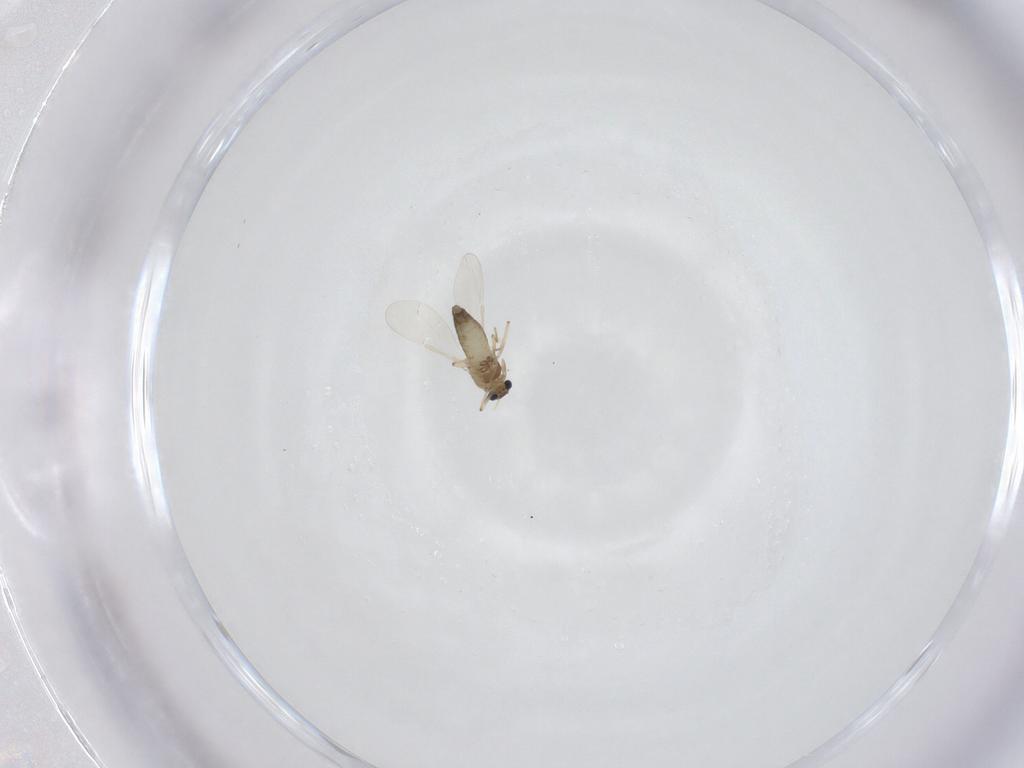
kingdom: Animalia
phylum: Arthropoda
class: Insecta
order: Diptera
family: Chironomidae
